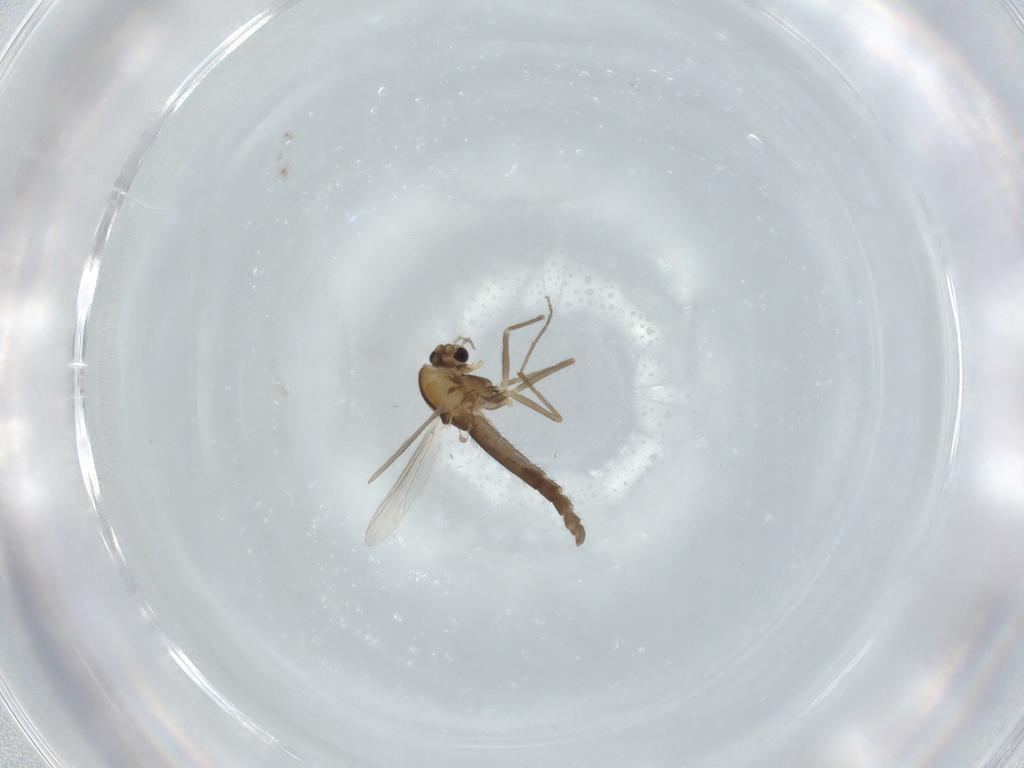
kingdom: Animalia
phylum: Arthropoda
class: Insecta
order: Diptera
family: Chironomidae
